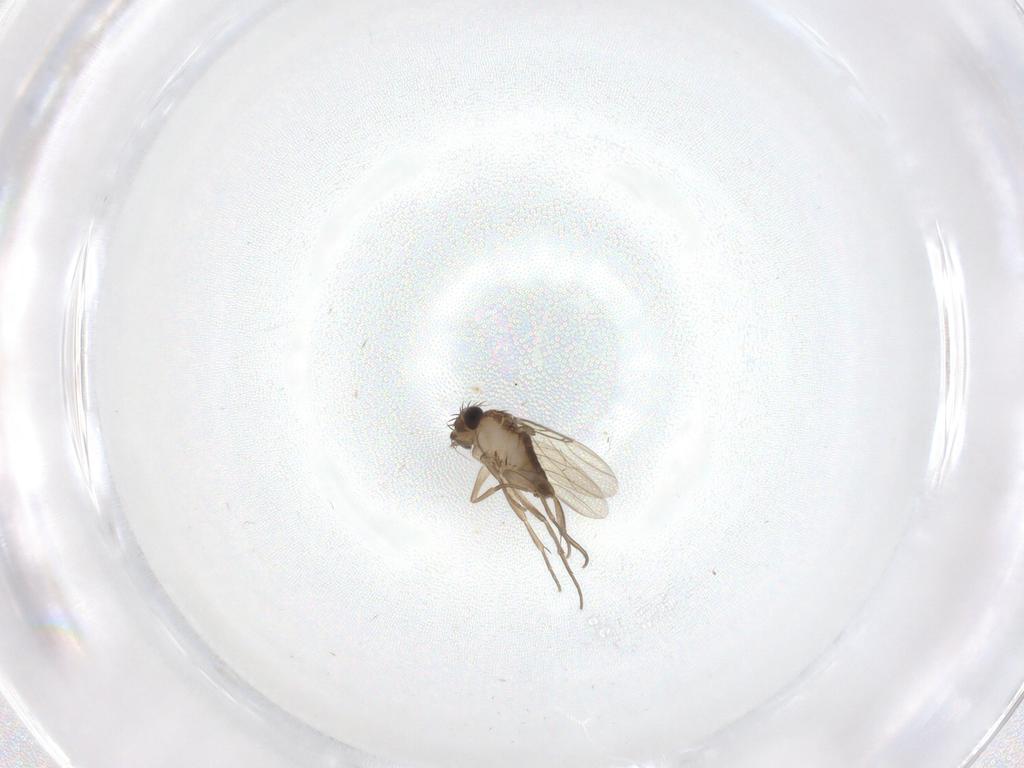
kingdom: Animalia
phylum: Arthropoda
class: Insecta
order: Diptera
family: Phoridae
